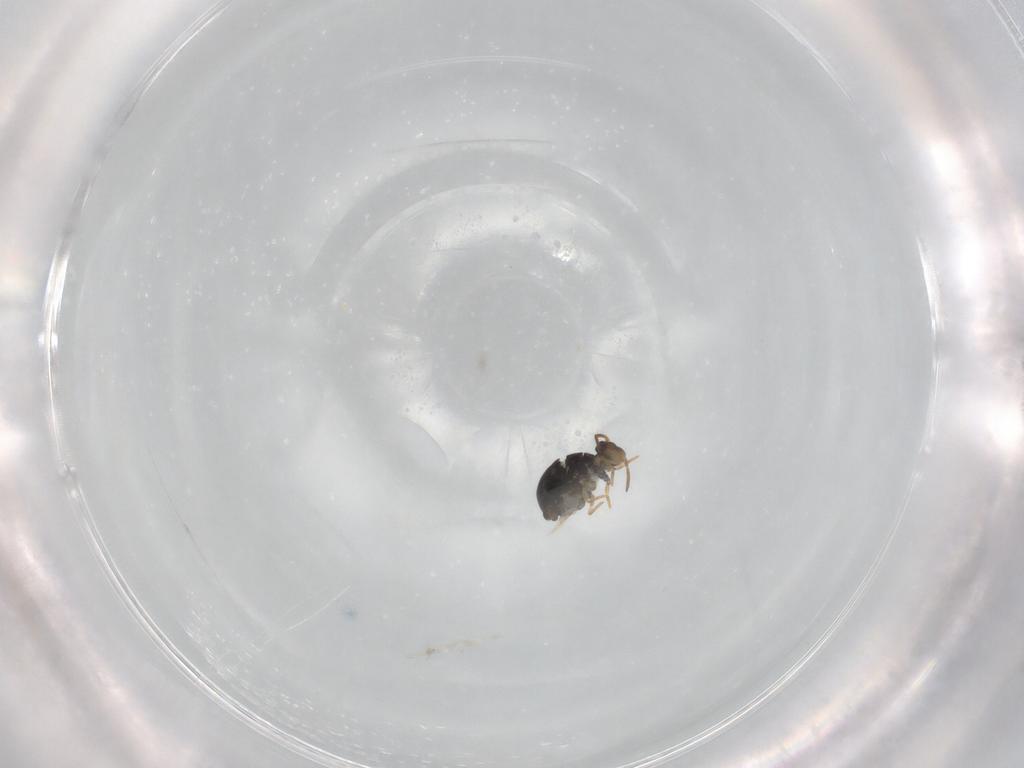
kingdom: Animalia
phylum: Arthropoda
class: Collembola
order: Symphypleona
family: Katiannidae
